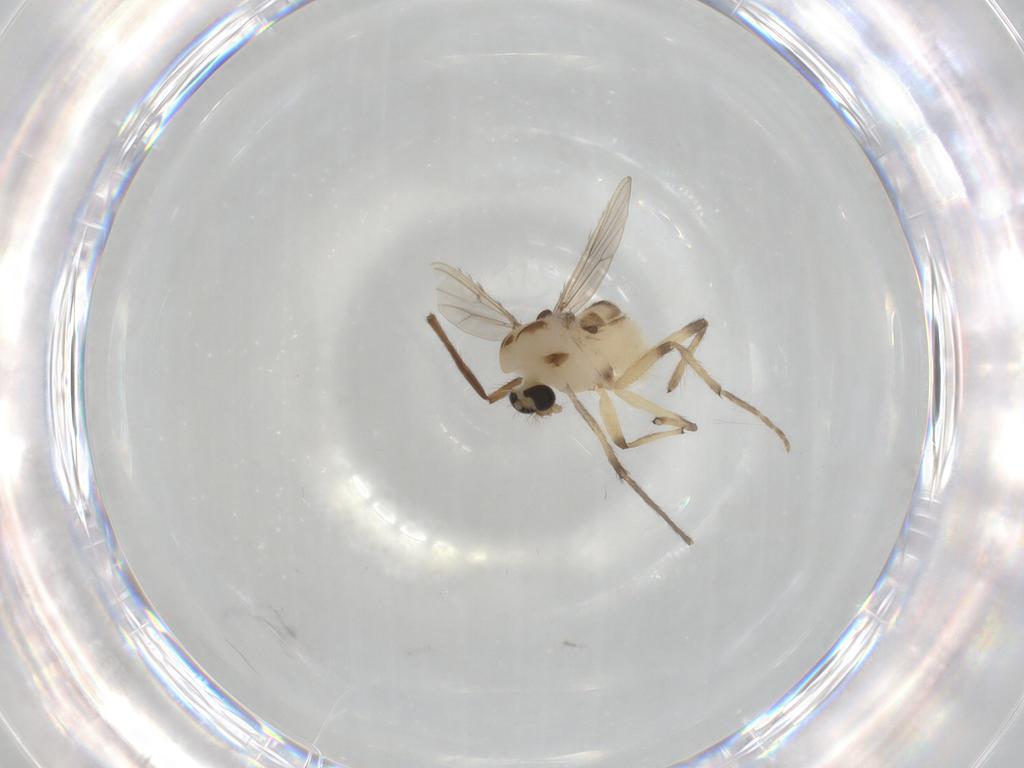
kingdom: Animalia
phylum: Arthropoda
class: Insecta
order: Diptera
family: Chironomidae
